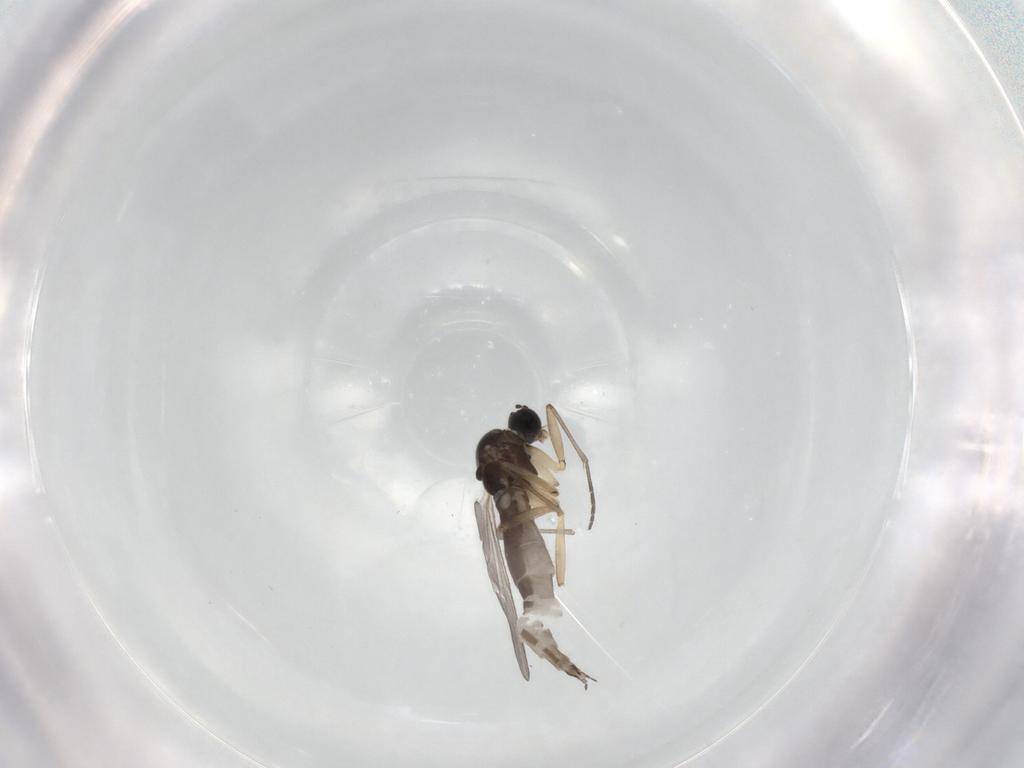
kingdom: Animalia
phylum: Arthropoda
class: Insecta
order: Diptera
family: Sciaridae
